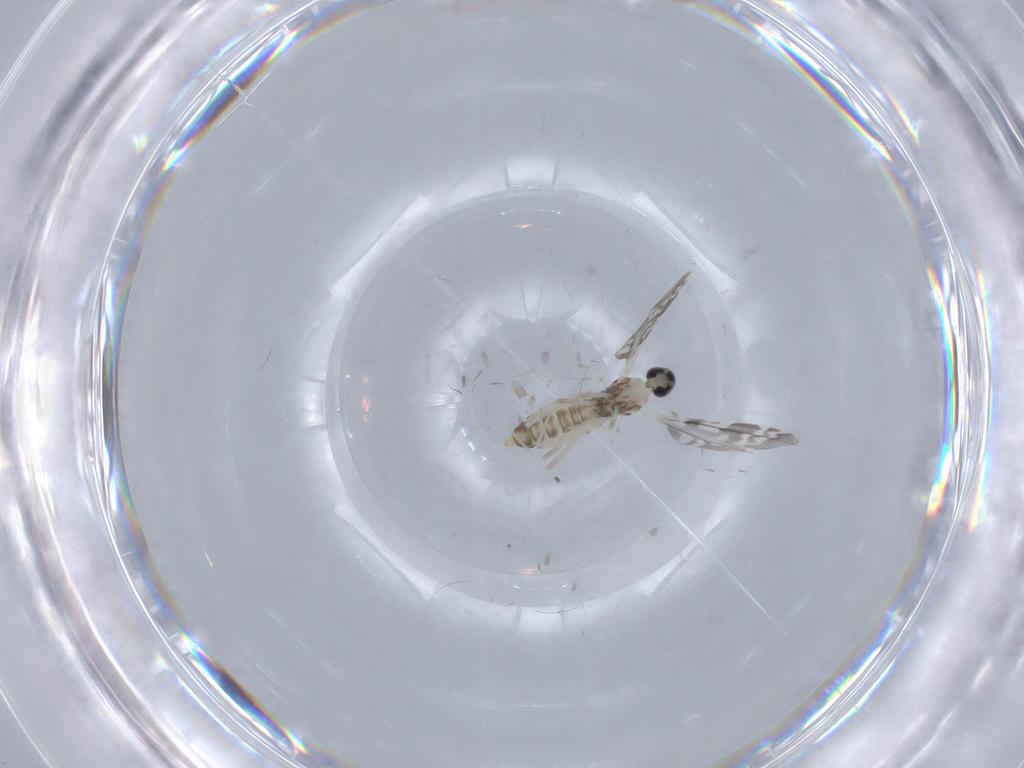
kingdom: Animalia
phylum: Arthropoda
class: Insecta
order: Diptera
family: Cecidomyiidae
